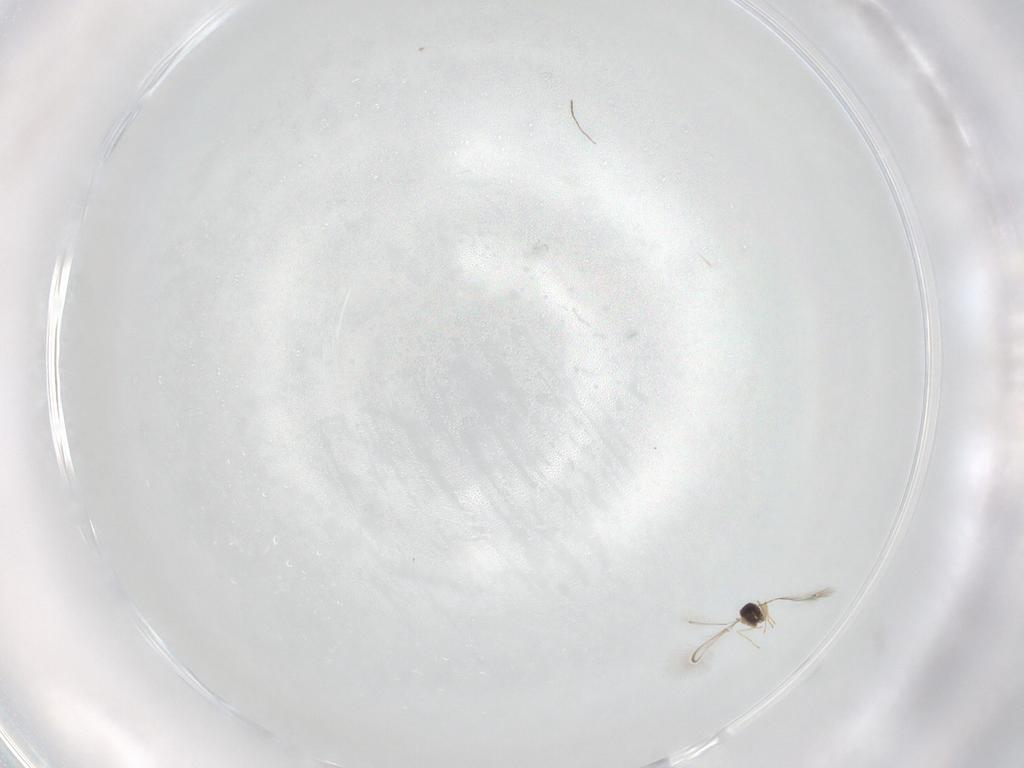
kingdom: Animalia
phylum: Arthropoda
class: Insecta
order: Hymenoptera
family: Mymaridae
